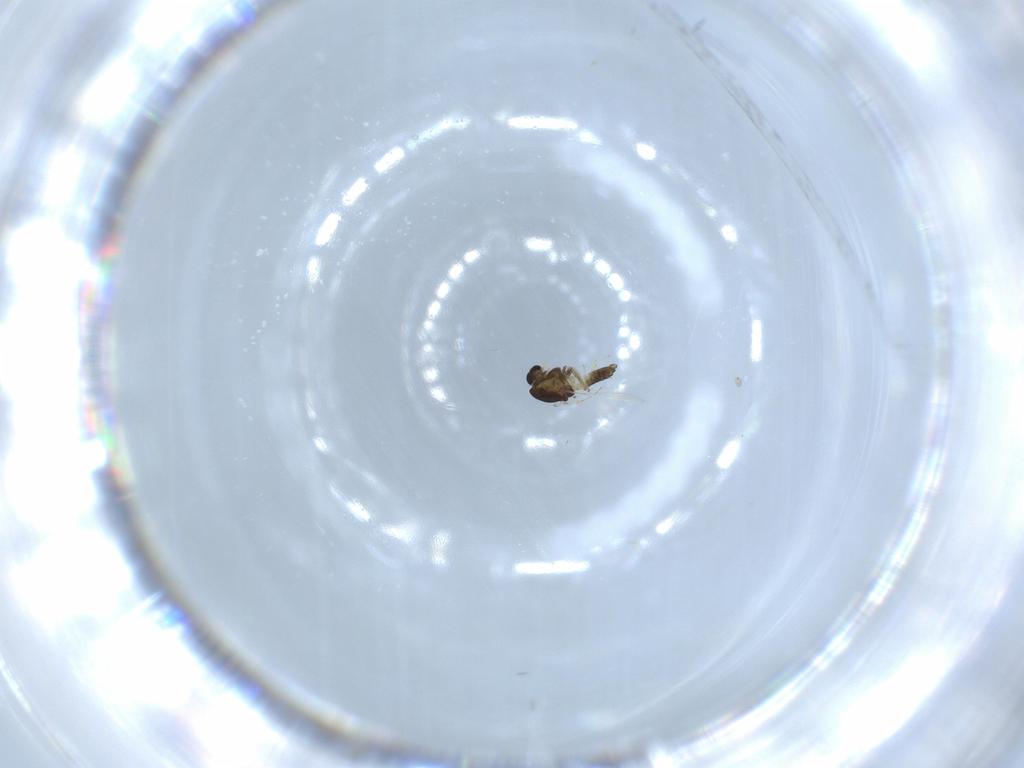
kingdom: Animalia
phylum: Arthropoda
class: Insecta
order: Diptera
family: Chironomidae
